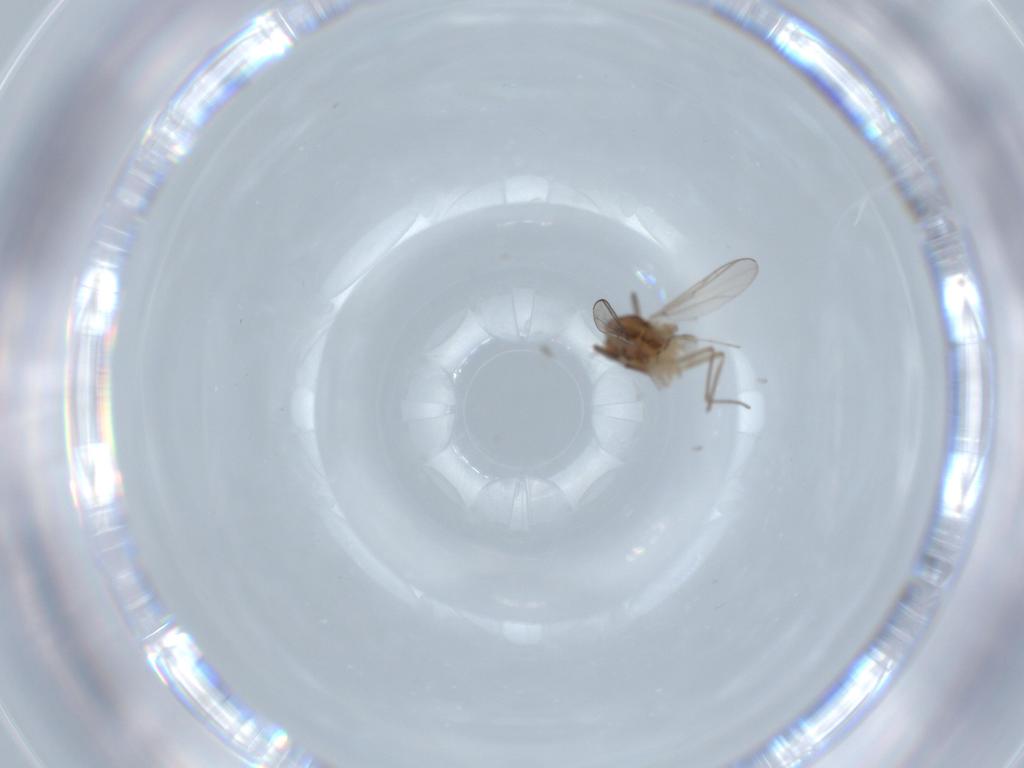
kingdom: Animalia
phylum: Arthropoda
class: Insecta
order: Diptera
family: Chironomidae
